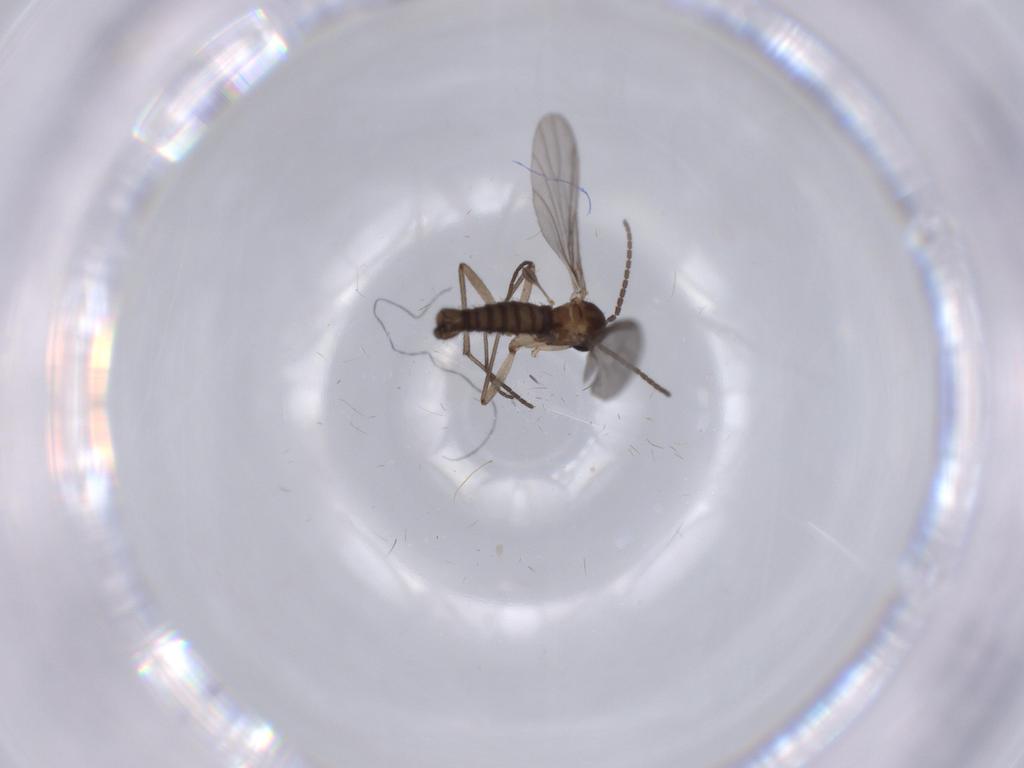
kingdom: Animalia
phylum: Arthropoda
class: Insecta
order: Diptera
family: Sciaridae
